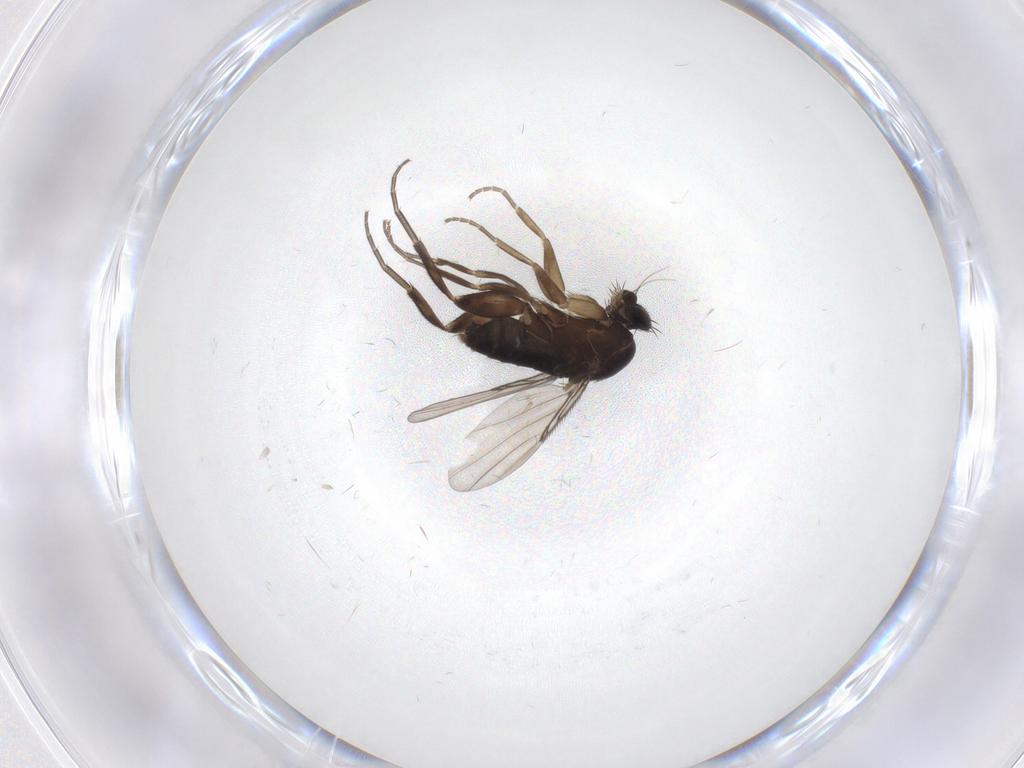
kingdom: Animalia
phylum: Arthropoda
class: Insecta
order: Diptera
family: Phoridae
